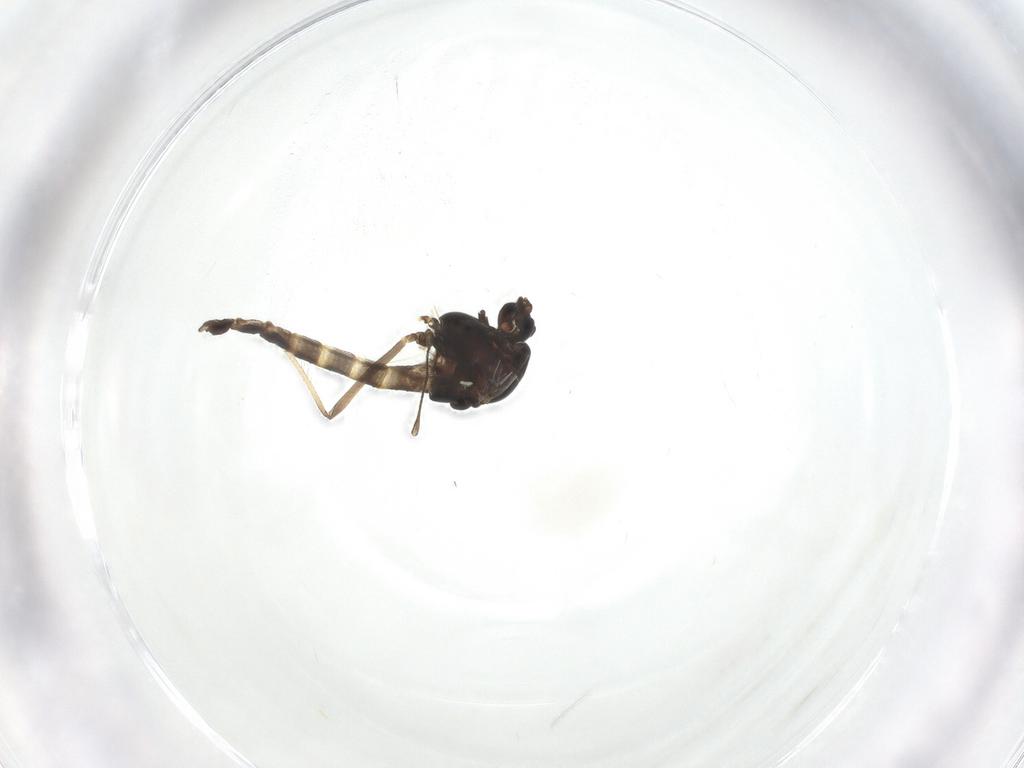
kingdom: Animalia
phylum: Arthropoda
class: Insecta
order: Diptera
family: Chironomidae
